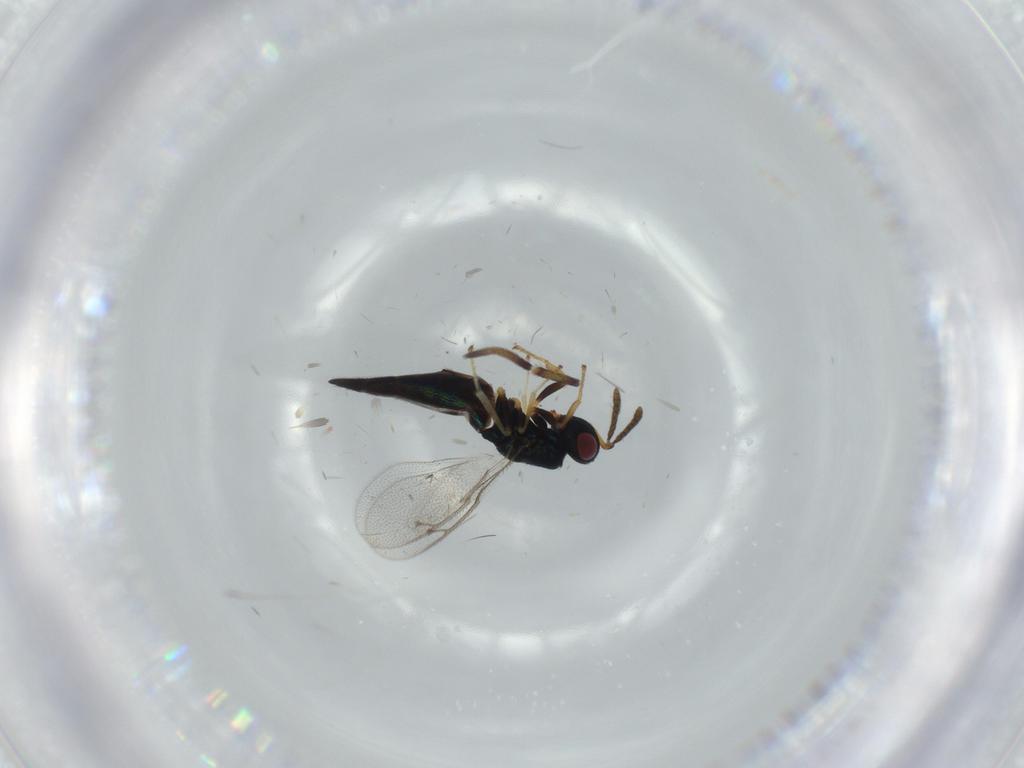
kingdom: Animalia
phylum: Arthropoda
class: Insecta
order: Hymenoptera
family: Pteromalidae
